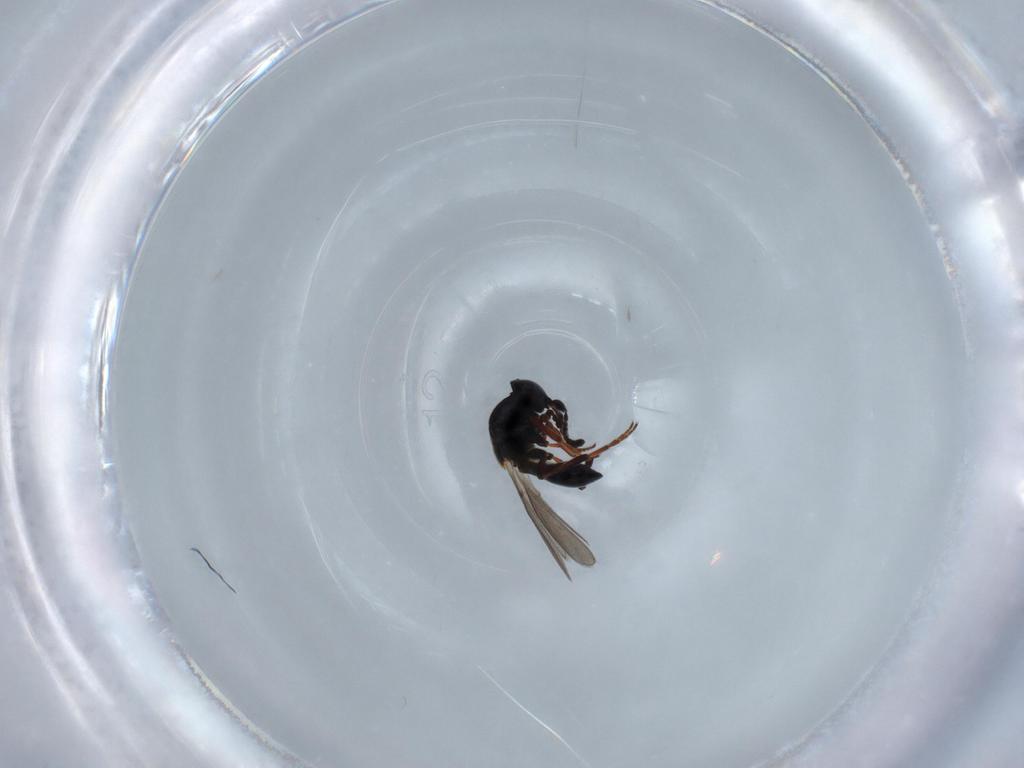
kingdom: Animalia
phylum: Arthropoda
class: Insecta
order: Hymenoptera
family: Platygastridae
